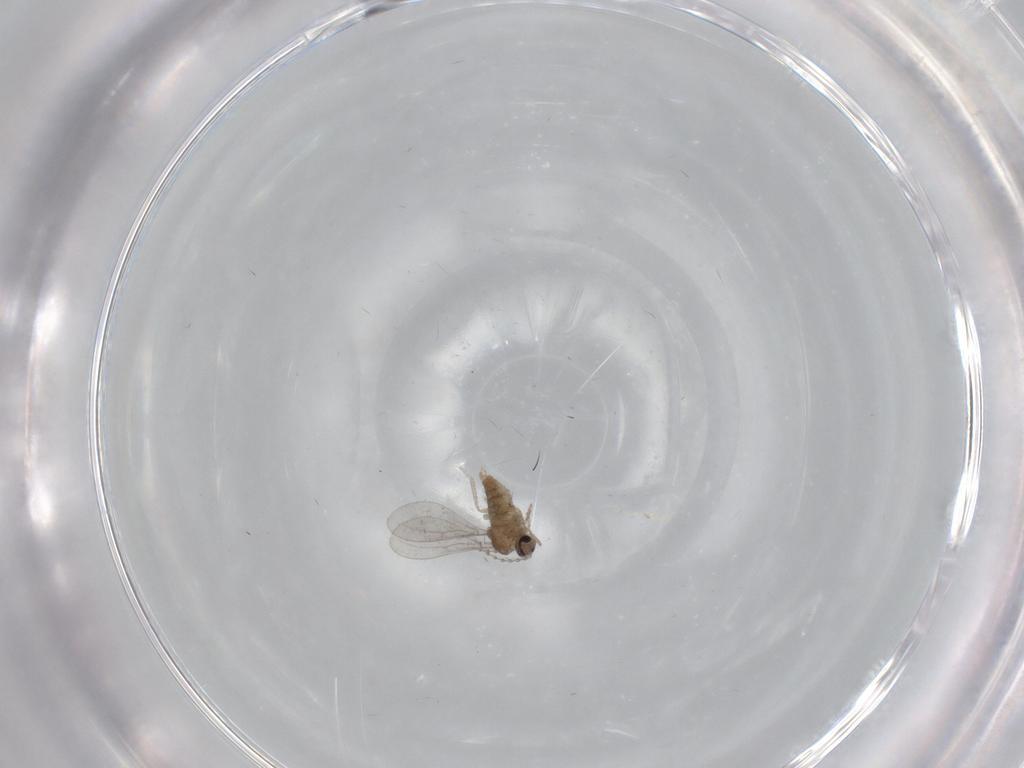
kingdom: Animalia
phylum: Arthropoda
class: Insecta
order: Diptera
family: Cecidomyiidae
